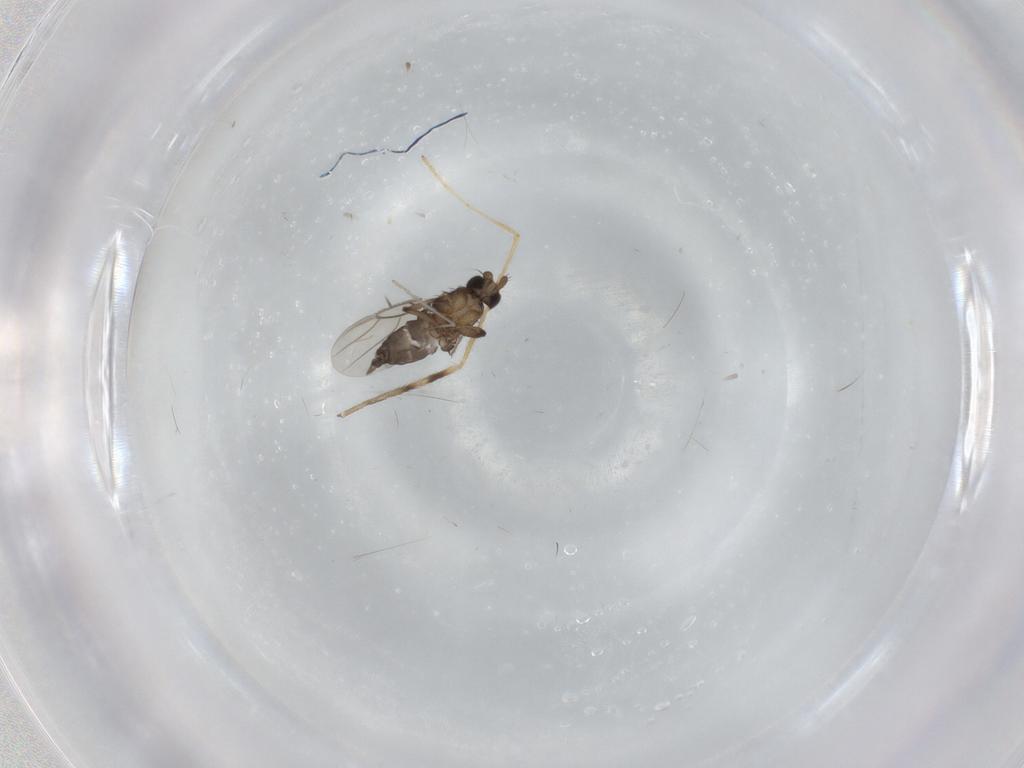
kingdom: Animalia
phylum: Arthropoda
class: Insecta
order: Diptera
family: Limoniidae
